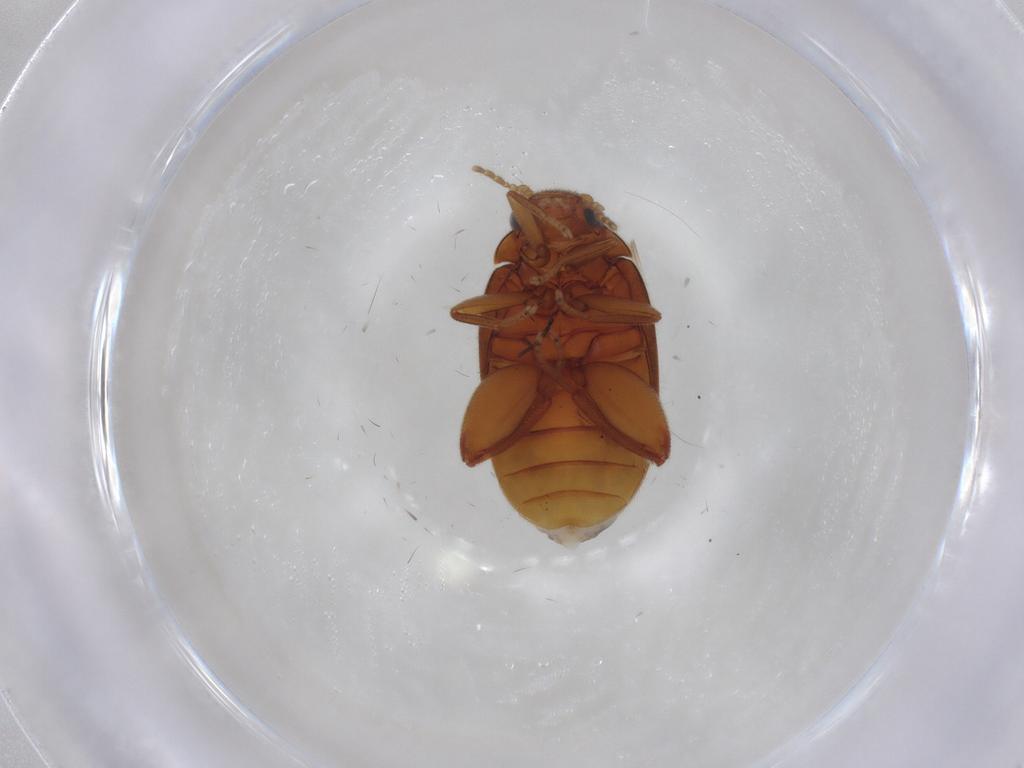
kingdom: Animalia
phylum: Arthropoda
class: Insecta
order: Coleoptera
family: Scirtidae
